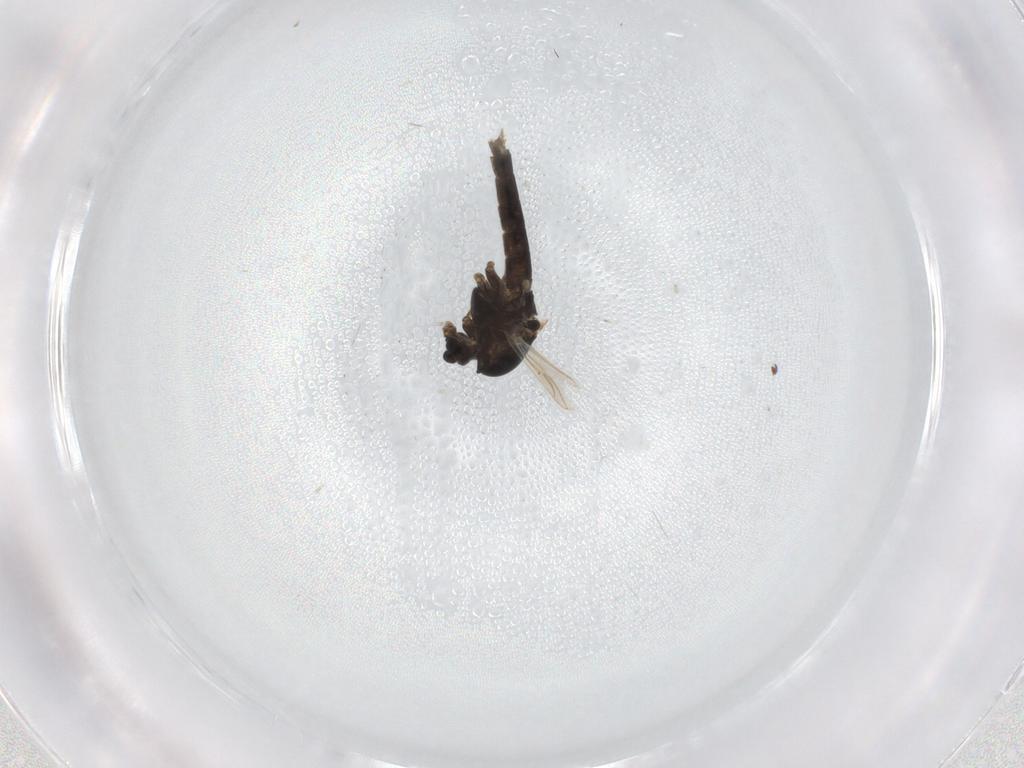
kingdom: Animalia
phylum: Arthropoda
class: Insecta
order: Diptera
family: Chironomidae
